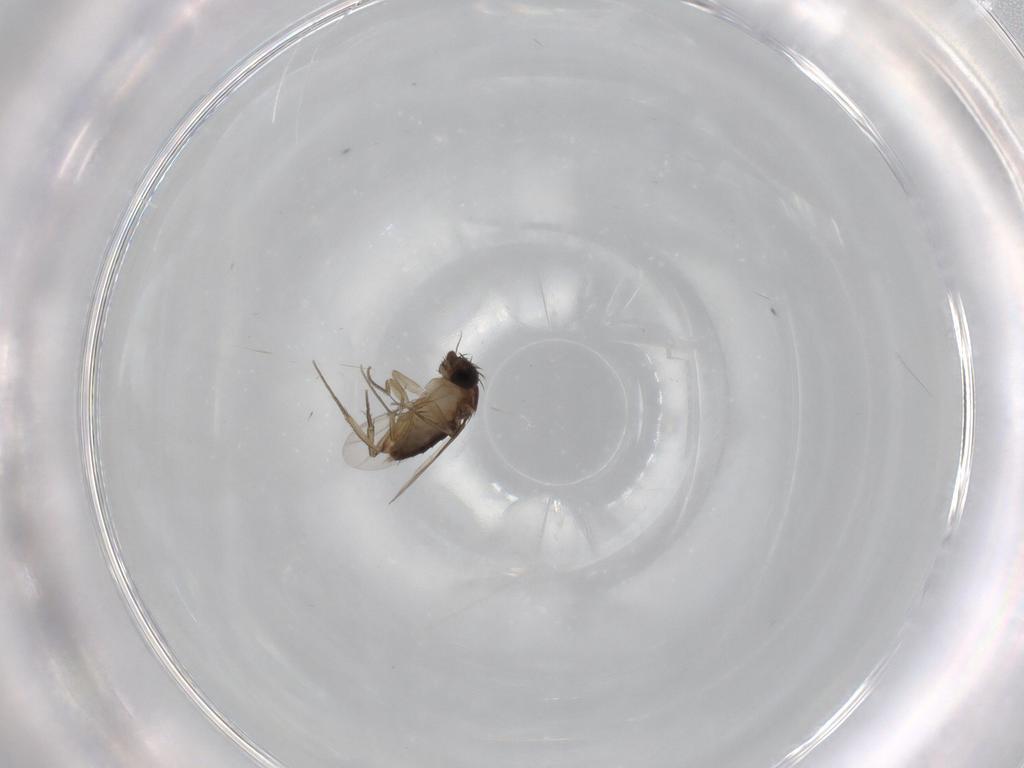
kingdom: Animalia
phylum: Arthropoda
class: Insecta
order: Diptera
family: Phoridae
